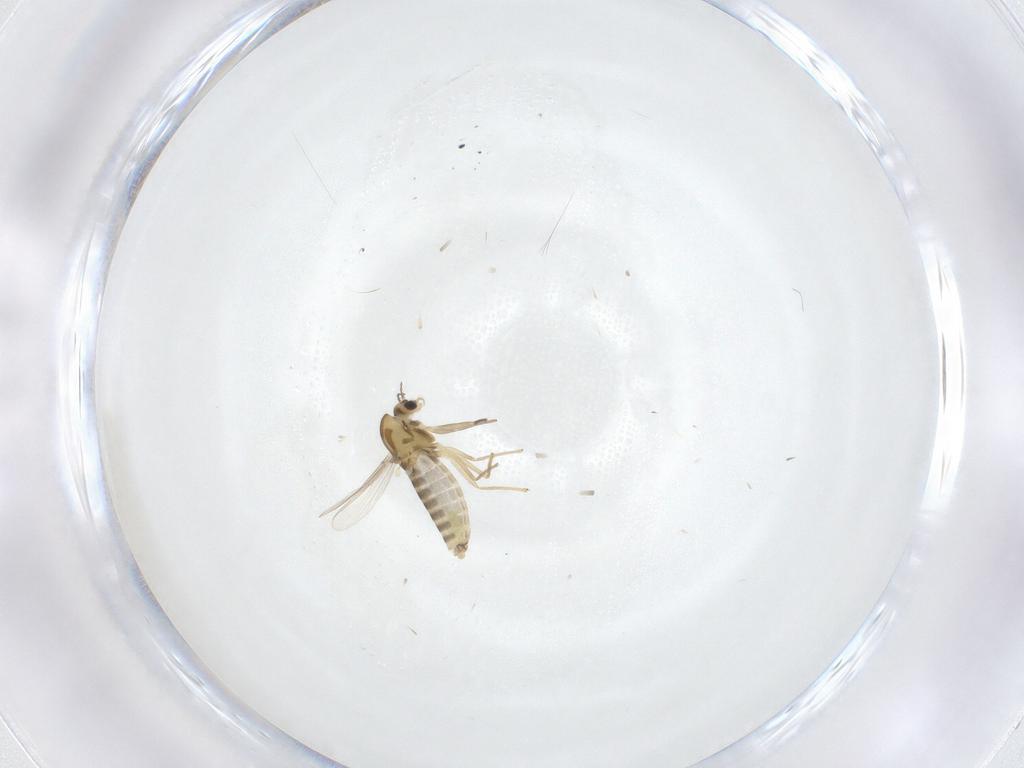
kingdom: Animalia
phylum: Arthropoda
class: Insecta
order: Diptera
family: Chironomidae
